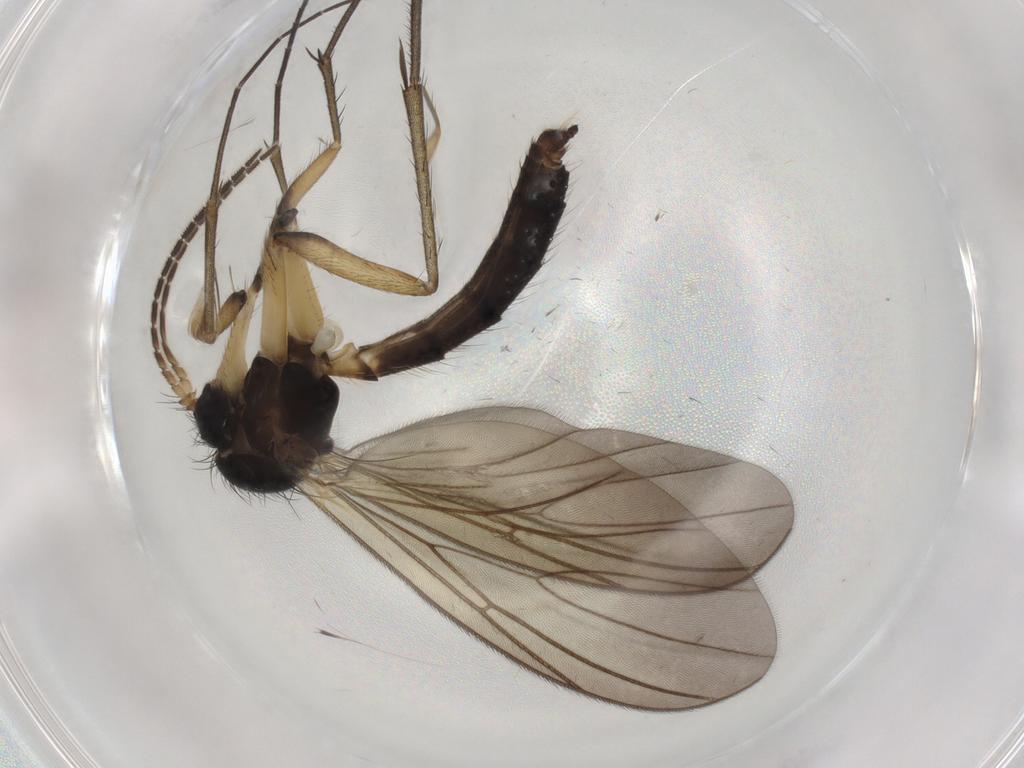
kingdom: Animalia
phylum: Arthropoda
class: Insecta
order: Diptera
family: Mycetophilidae
